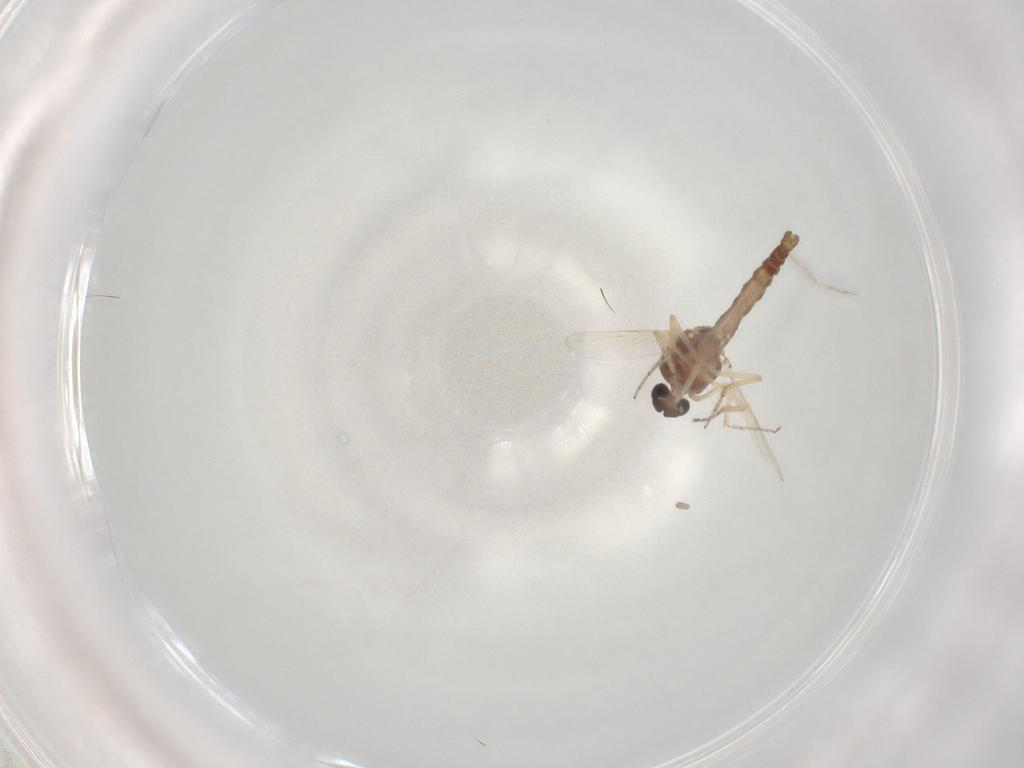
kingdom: Animalia
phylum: Arthropoda
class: Insecta
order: Diptera
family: Ceratopogonidae
